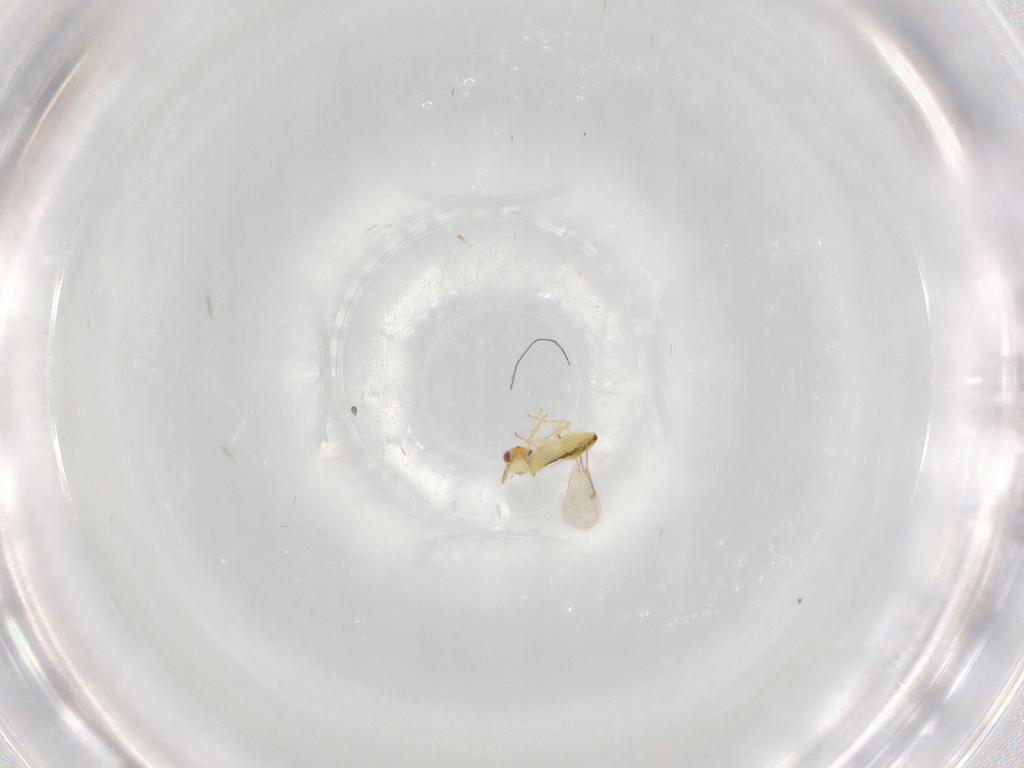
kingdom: Animalia
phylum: Arthropoda
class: Insecta
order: Hymenoptera
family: Aphelinidae
